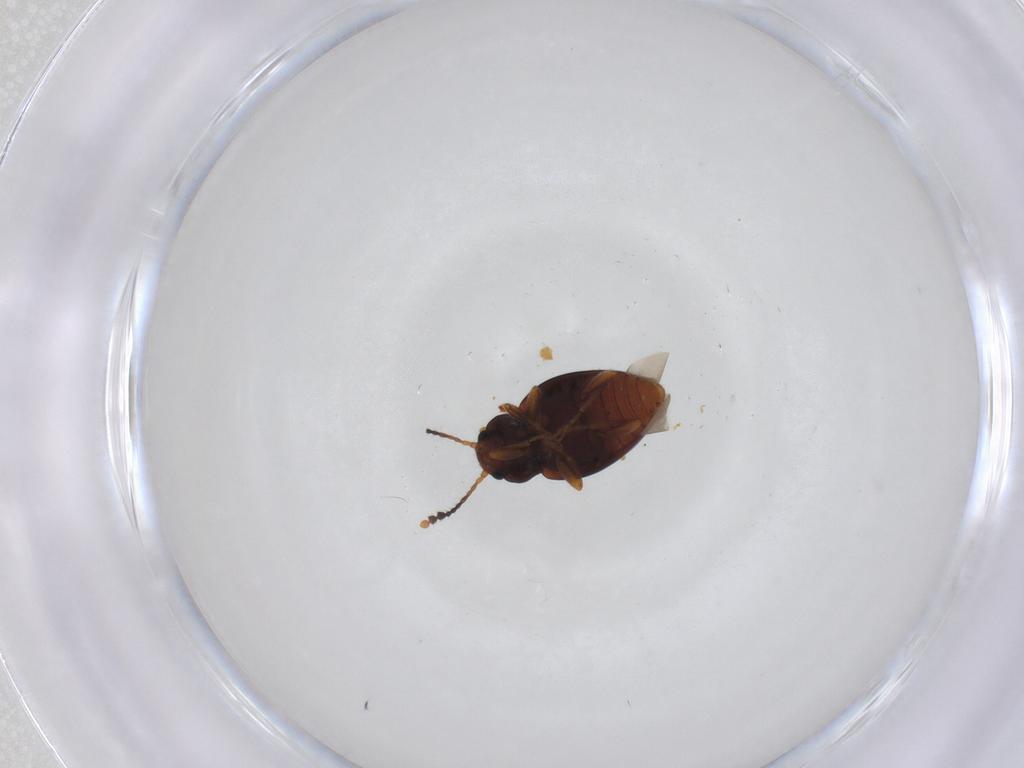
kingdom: Animalia
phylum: Arthropoda
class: Insecta
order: Coleoptera
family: Erotylidae
